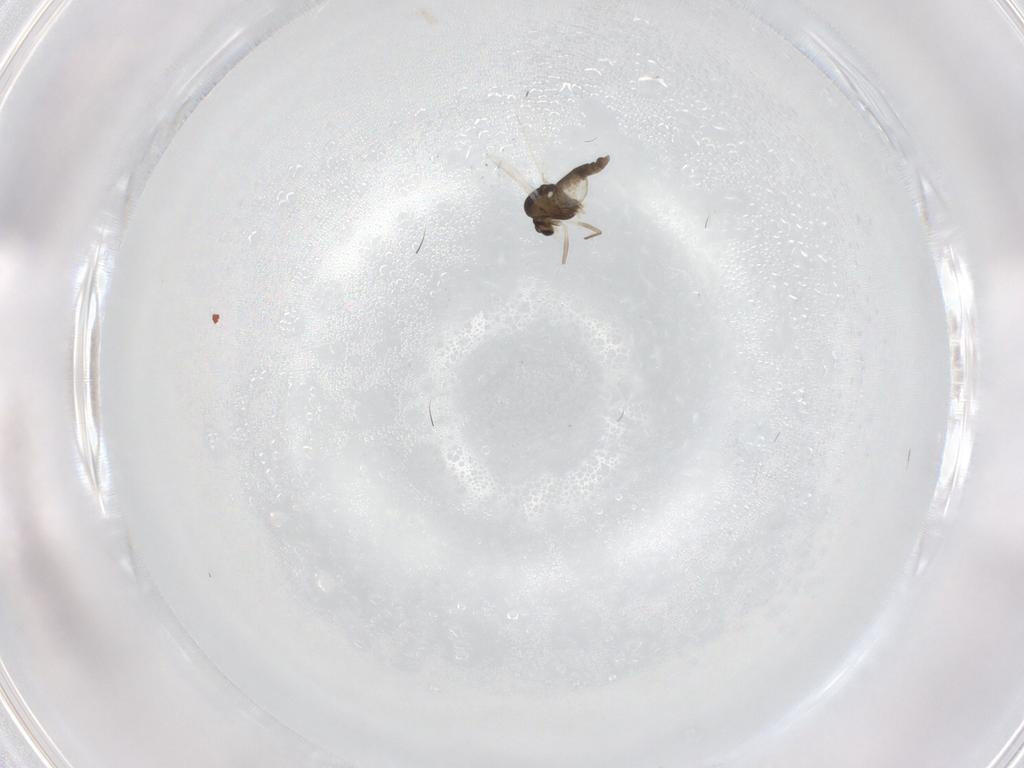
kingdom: Animalia
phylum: Arthropoda
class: Insecta
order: Diptera
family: Chironomidae
